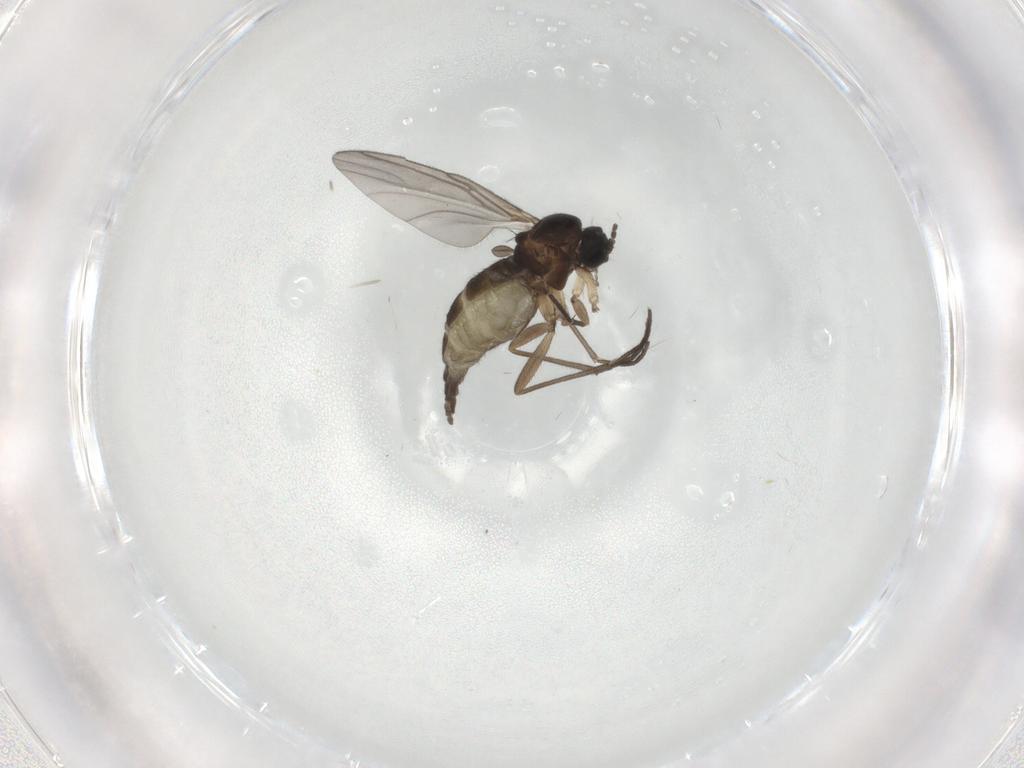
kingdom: Animalia
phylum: Arthropoda
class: Insecta
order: Diptera
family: Sciaridae
